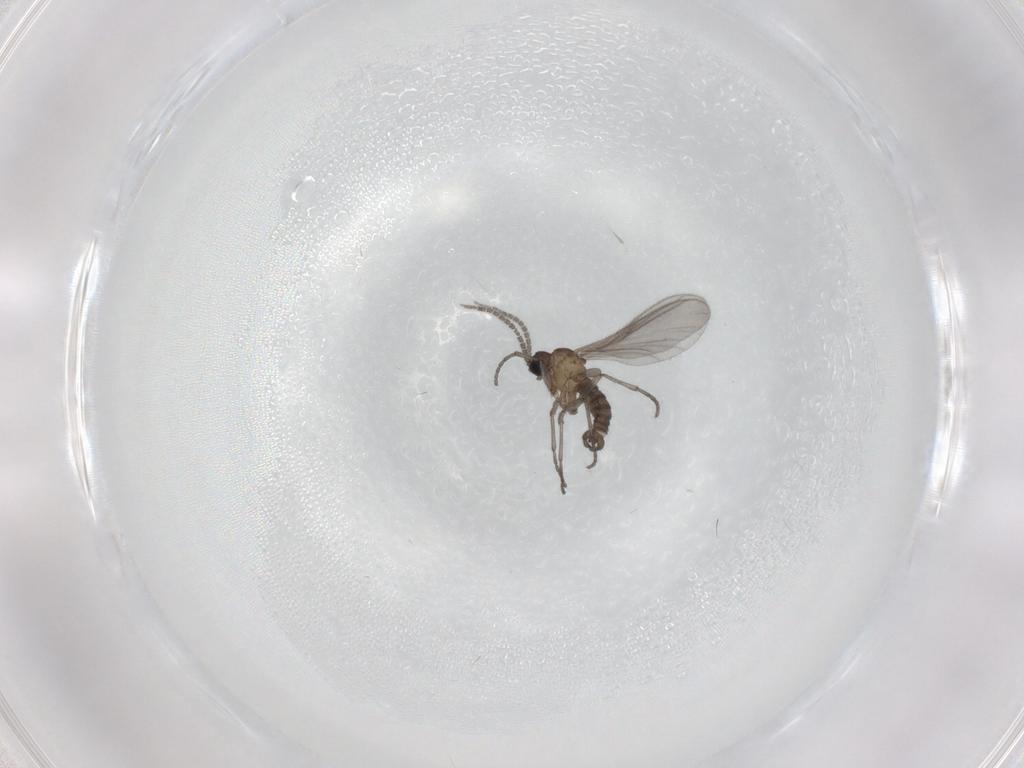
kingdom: Animalia
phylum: Arthropoda
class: Insecta
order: Diptera
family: Sciaridae
